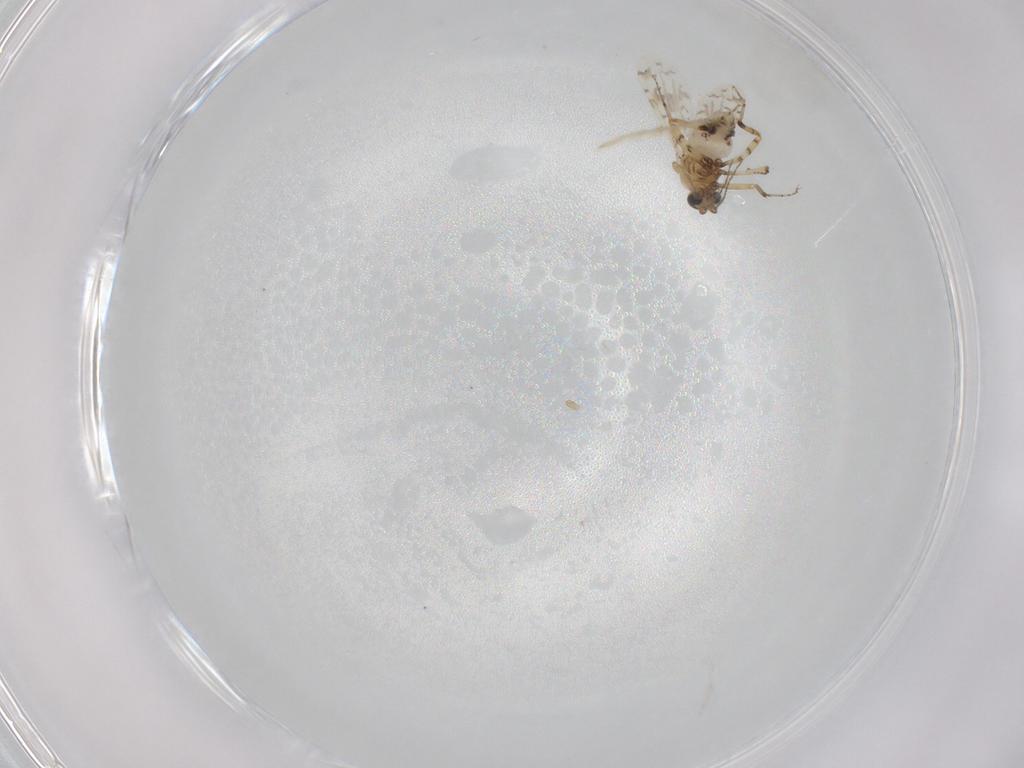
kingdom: Animalia
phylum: Arthropoda
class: Insecta
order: Diptera
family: Ceratopogonidae
